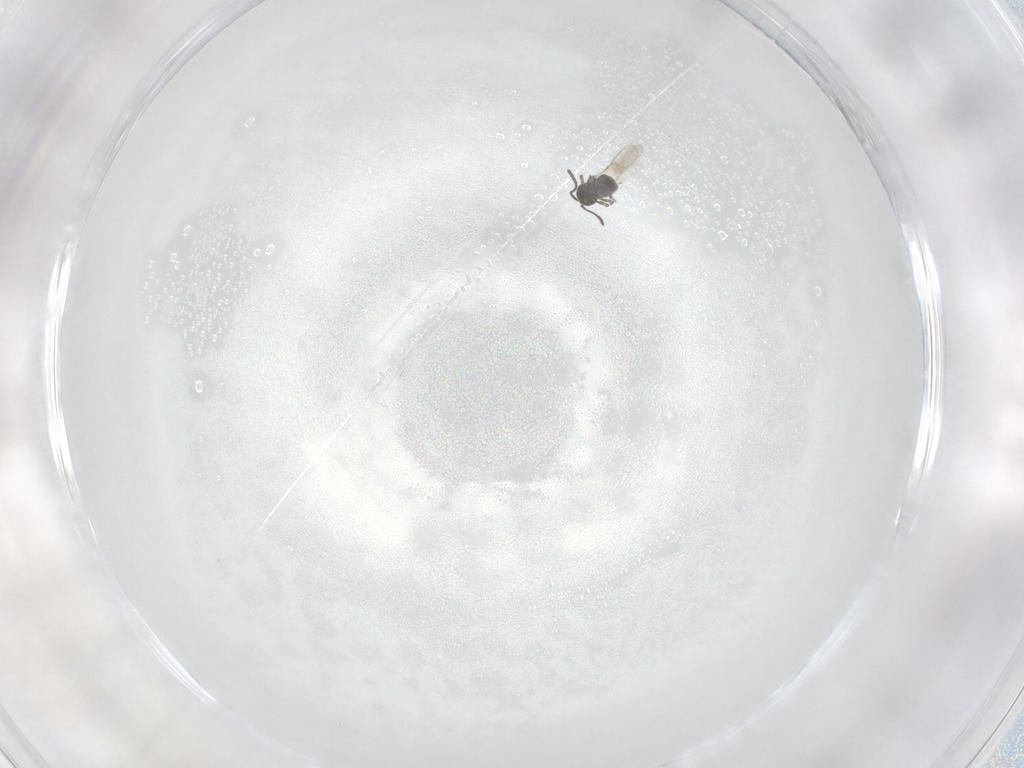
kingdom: Animalia
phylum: Arthropoda
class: Insecta
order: Hymenoptera
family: Scelionidae
